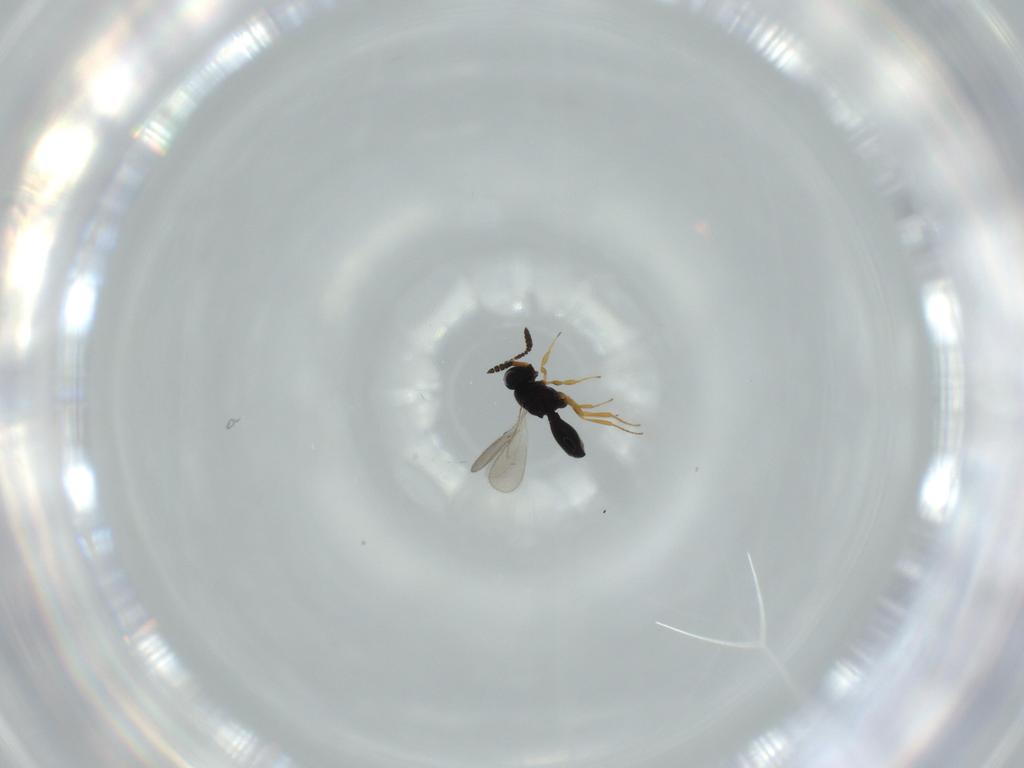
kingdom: Animalia
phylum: Arthropoda
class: Insecta
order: Hymenoptera
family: Scelionidae
